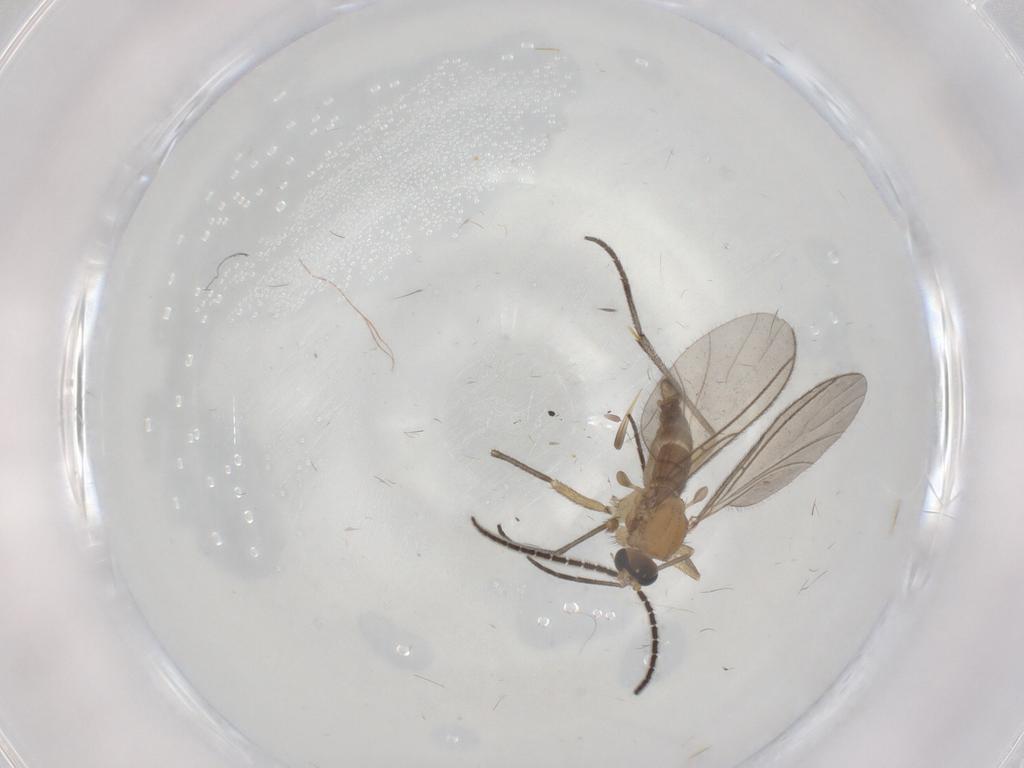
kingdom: Animalia
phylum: Arthropoda
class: Insecta
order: Diptera
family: Sciaridae
